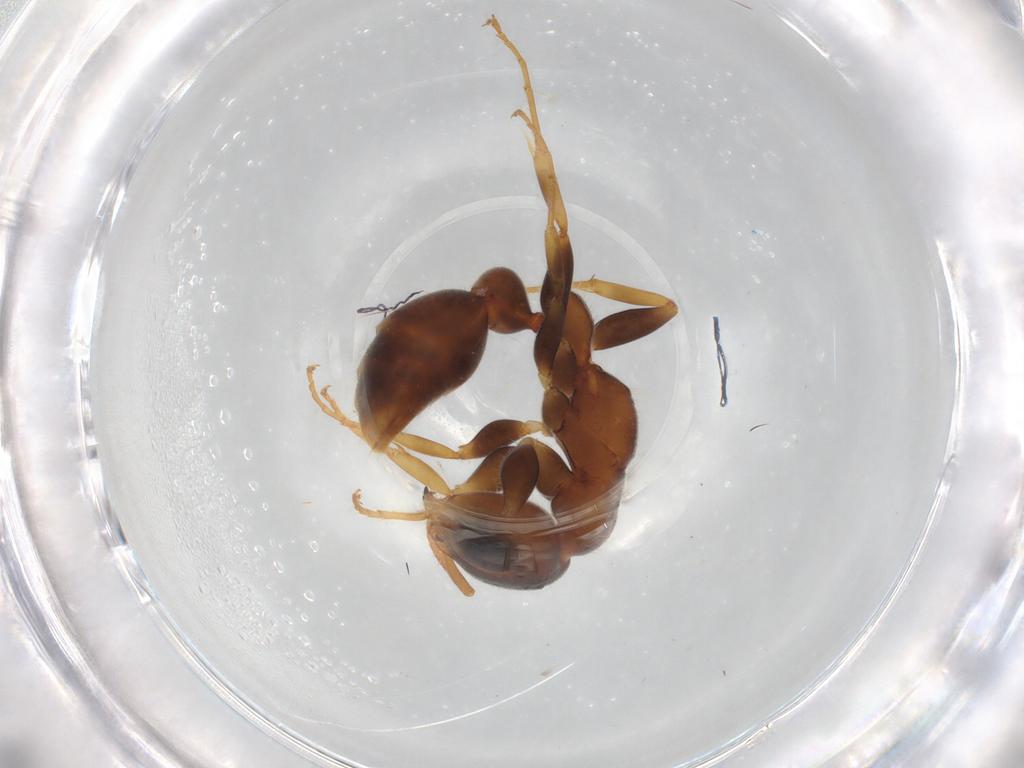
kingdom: Animalia
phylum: Arthropoda
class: Insecta
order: Hymenoptera
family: Formicidae
